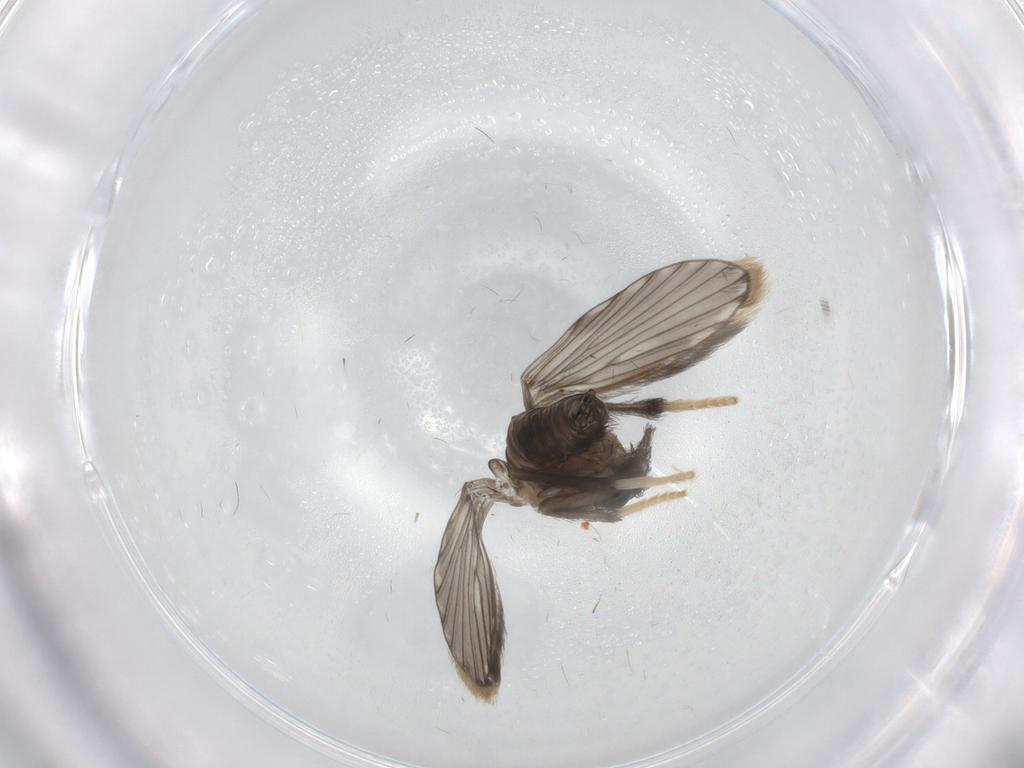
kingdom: Animalia
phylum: Arthropoda
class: Insecta
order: Diptera
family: Psychodidae
